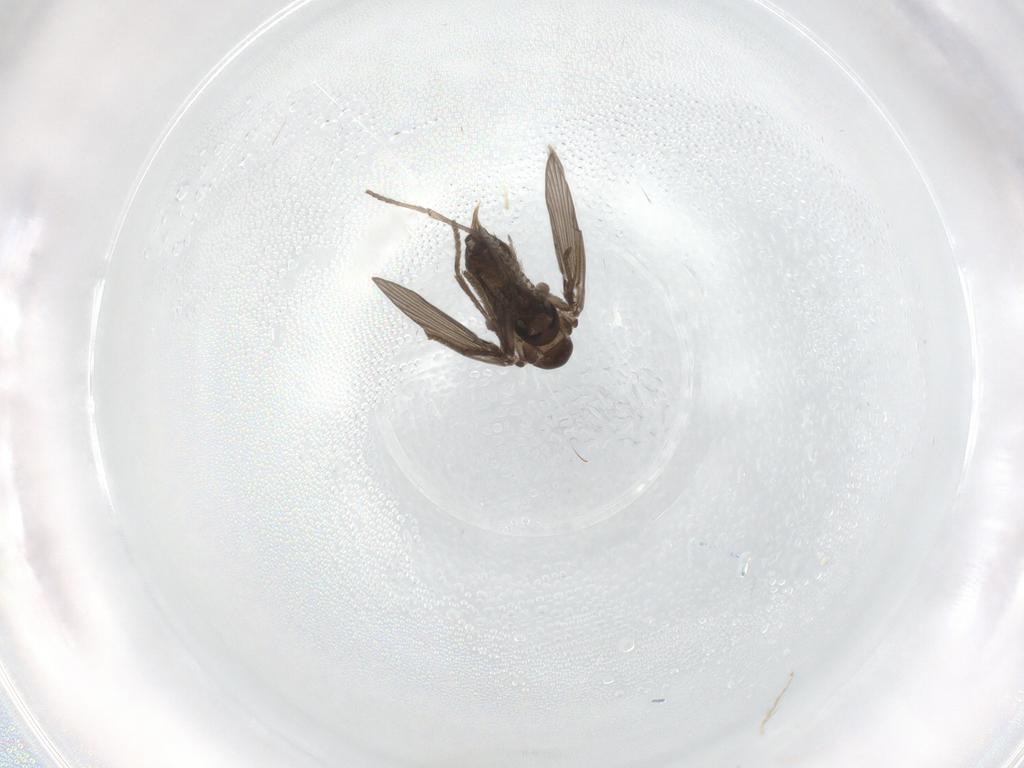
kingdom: Animalia
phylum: Arthropoda
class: Insecta
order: Diptera
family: Psychodidae
